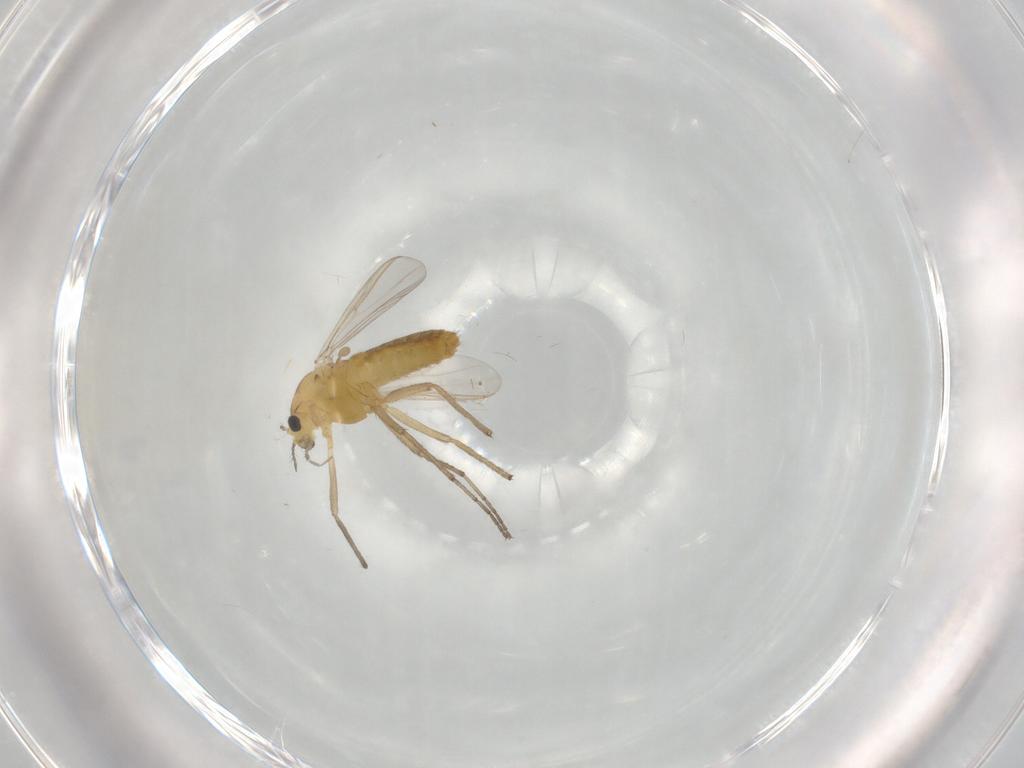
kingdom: Animalia
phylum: Arthropoda
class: Insecta
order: Diptera
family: Chironomidae
